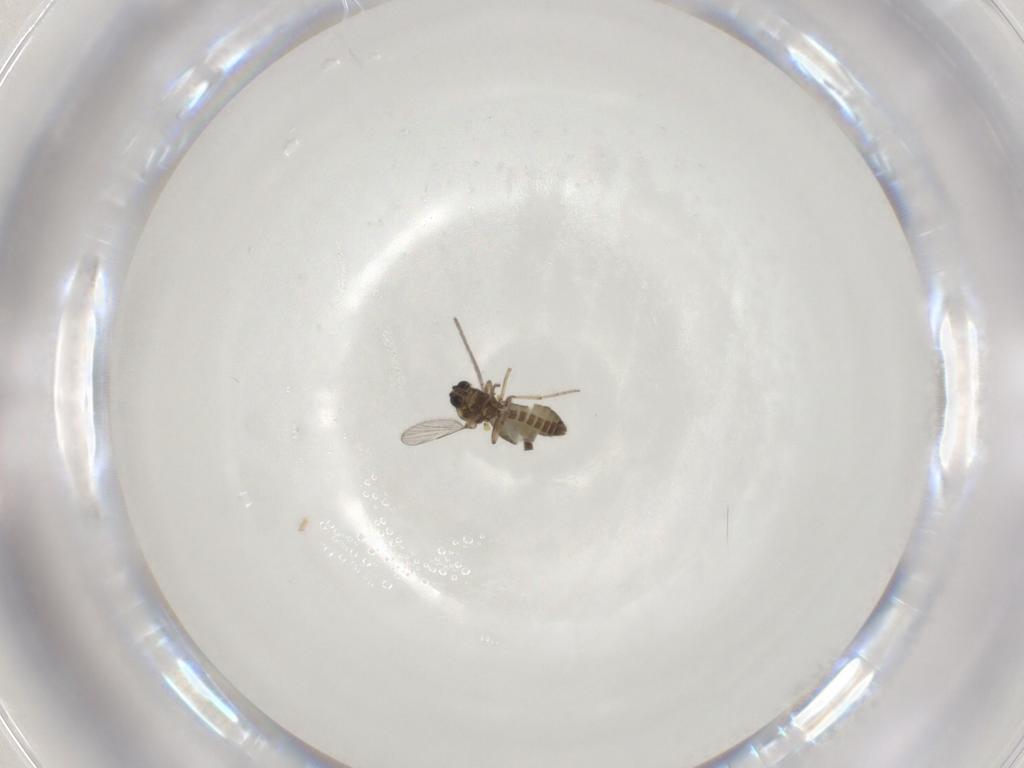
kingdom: Animalia
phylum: Arthropoda
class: Insecta
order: Diptera
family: Ceratopogonidae
